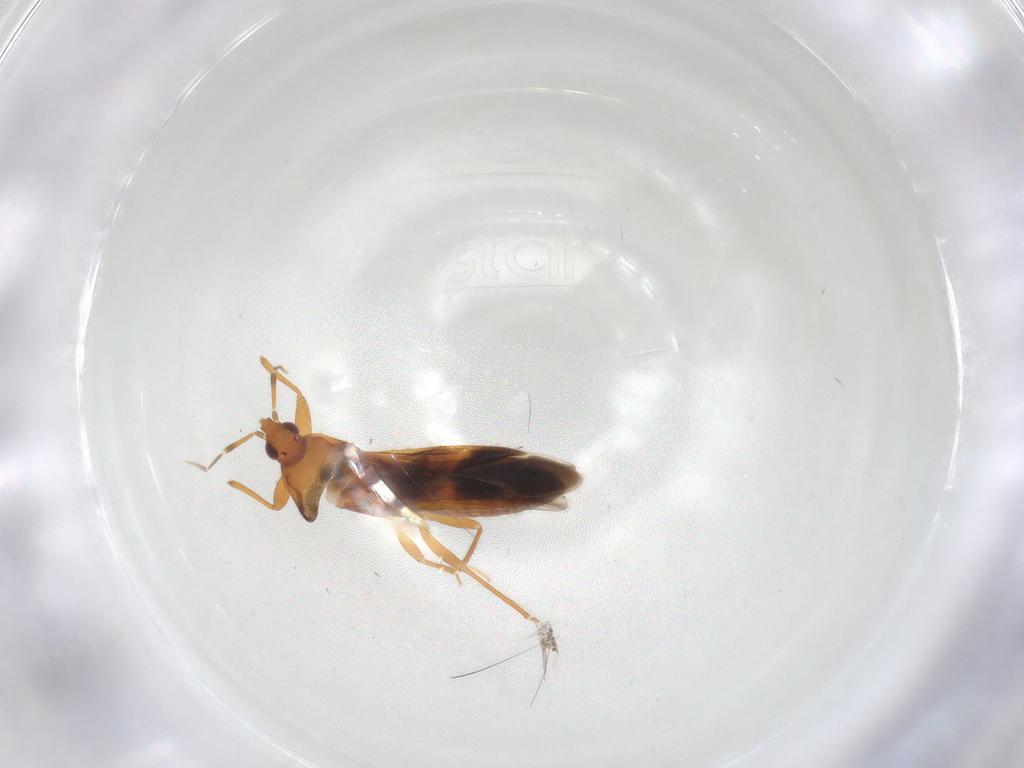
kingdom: Animalia
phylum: Arthropoda
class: Insecta
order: Hemiptera
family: Anthocoridae
